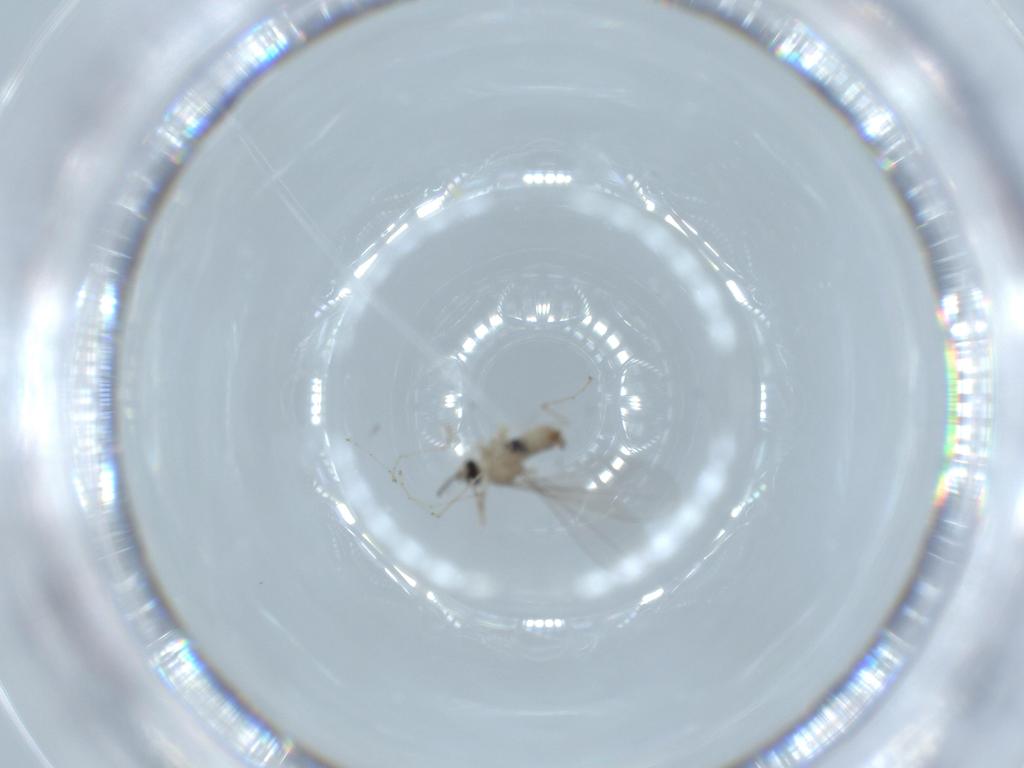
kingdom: Animalia
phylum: Arthropoda
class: Insecta
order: Diptera
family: Cecidomyiidae
